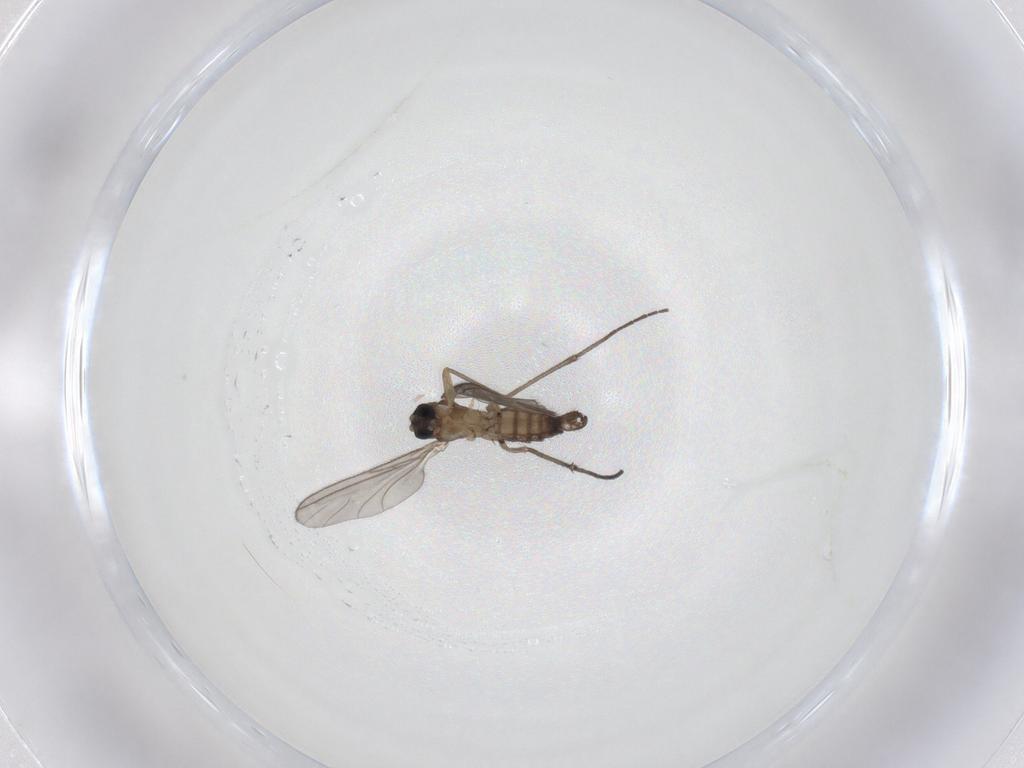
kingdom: Animalia
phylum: Arthropoda
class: Insecta
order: Diptera
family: Sciaridae
